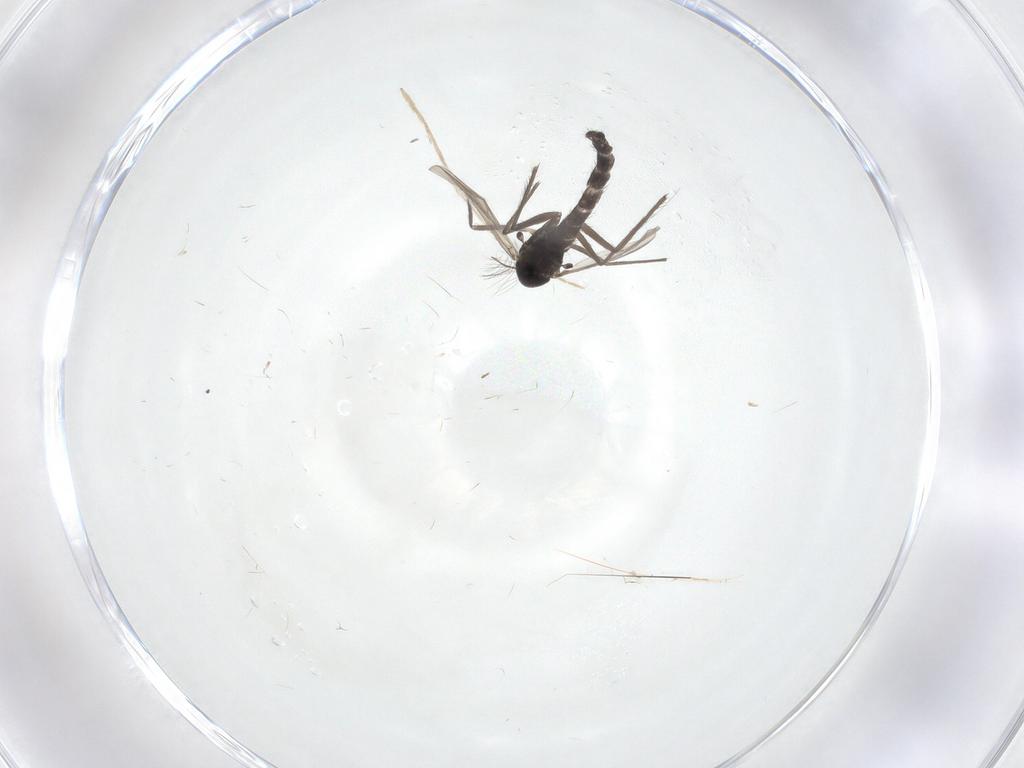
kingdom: Animalia
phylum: Arthropoda
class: Insecta
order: Diptera
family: Chironomidae
